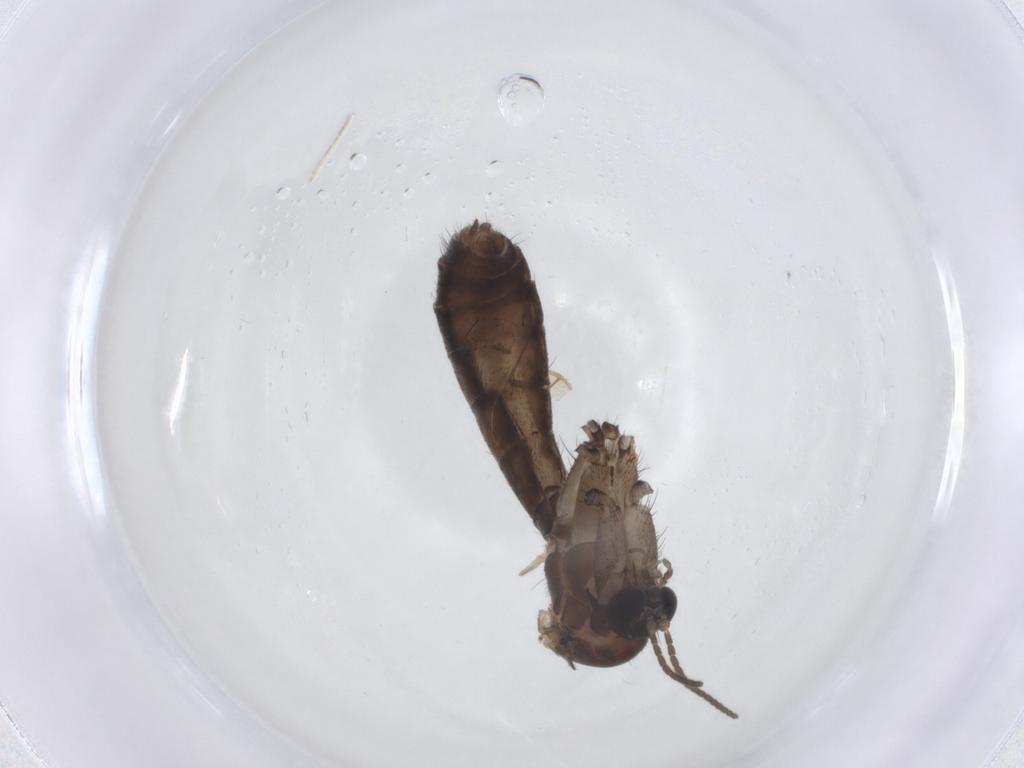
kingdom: Animalia
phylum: Arthropoda
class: Insecta
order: Diptera
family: Mycetophilidae
